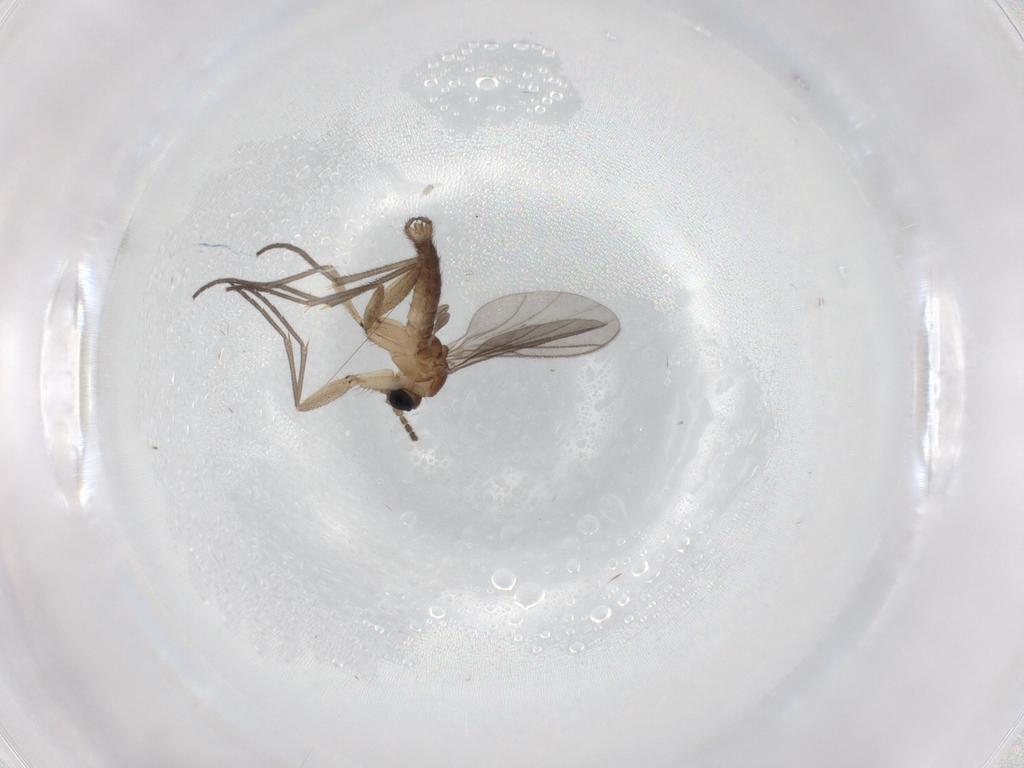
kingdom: Animalia
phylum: Arthropoda
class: Insecta
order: Diptera
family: Sciaridae
